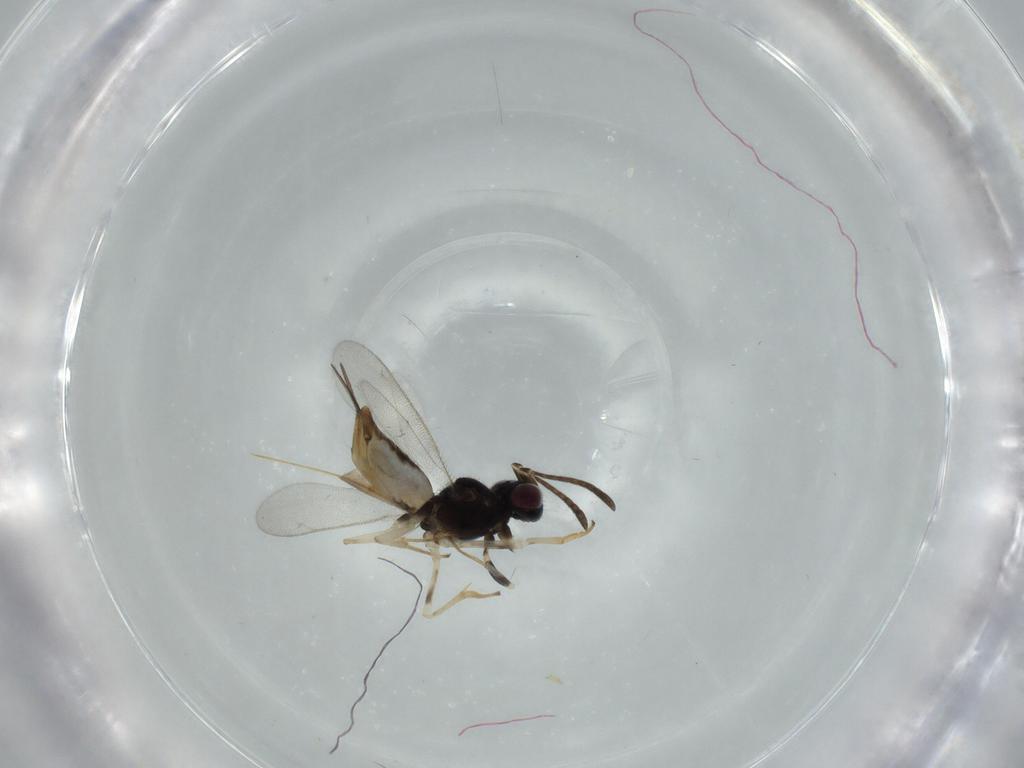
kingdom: Animalia
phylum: Arthropoda
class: Insecta
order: Hymenoptera
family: Eupelmidae
